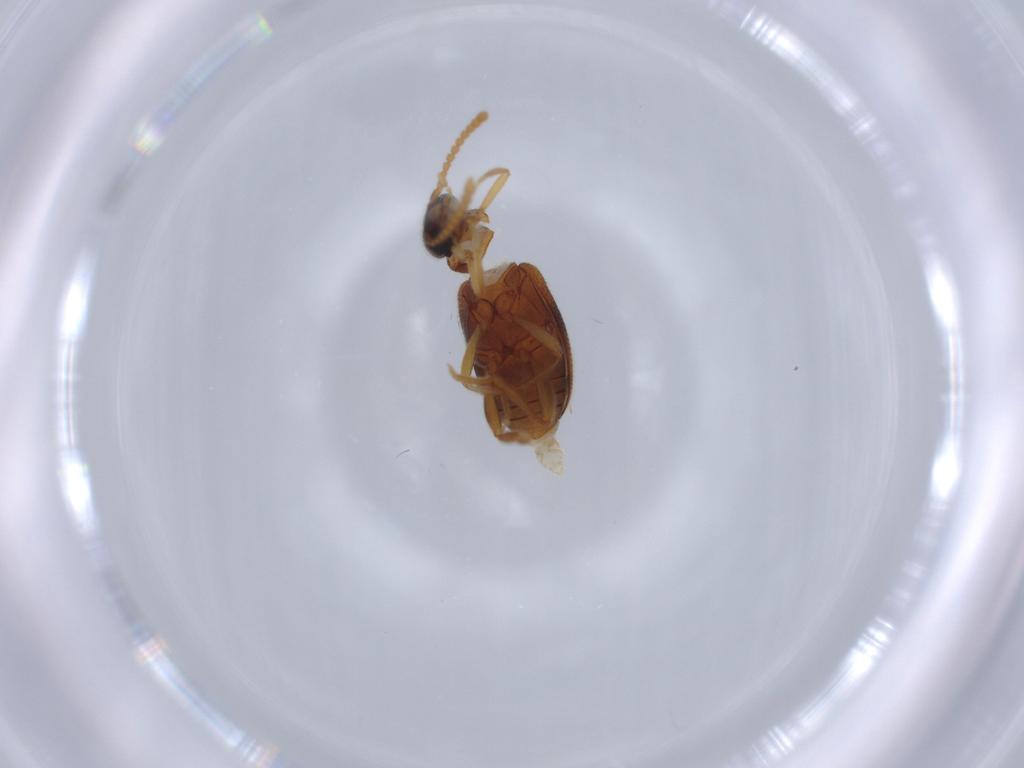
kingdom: Animalia
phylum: Arthropoda
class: Insecta
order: Coleoptera
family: Aderidae
